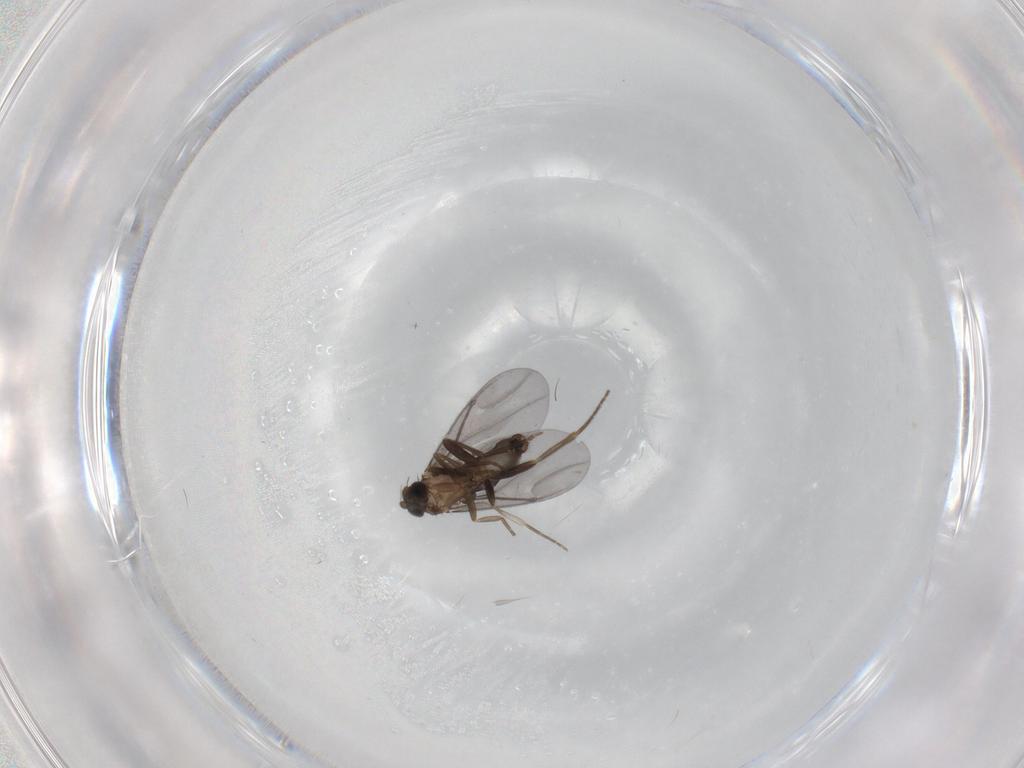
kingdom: Animalia
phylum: Arthropoda
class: Insecta
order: Diptera
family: Phoridae
